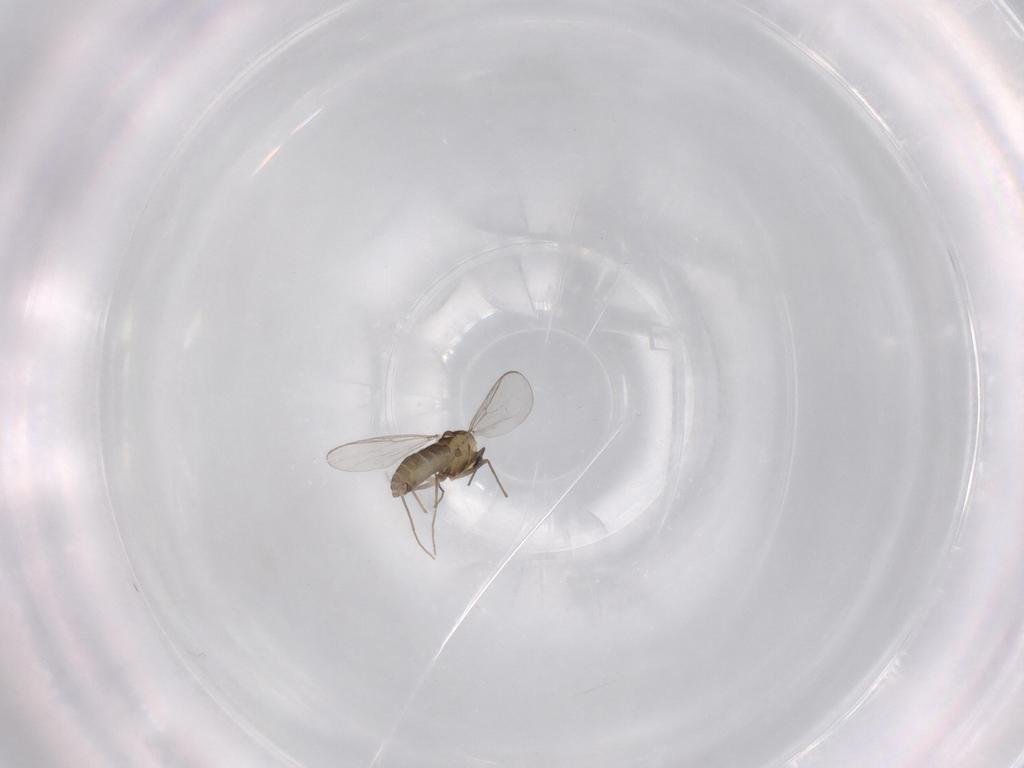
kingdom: Animalia
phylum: Arthropoda
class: Insecta
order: Diptera
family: Chironomidae
